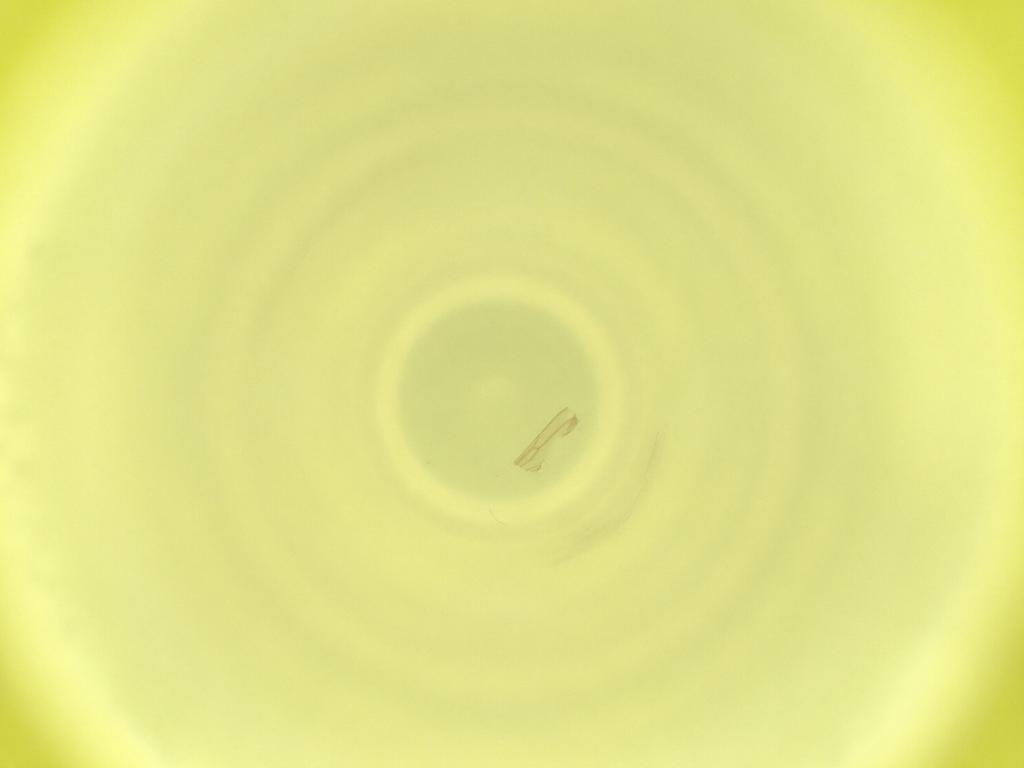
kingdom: Animalia
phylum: Arthropoda
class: Insecta
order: Diptera
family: Cecidomyiidae
